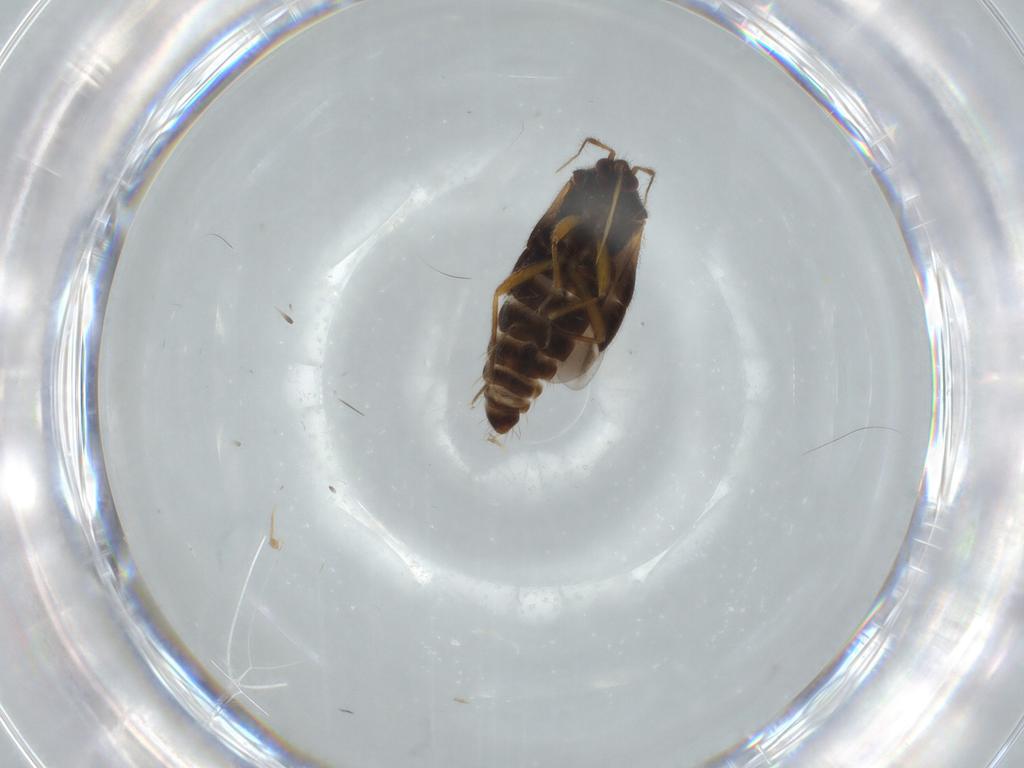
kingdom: Animalia
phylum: Arthropoda
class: Insecta
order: Hemiptera
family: Lasiochilidae
